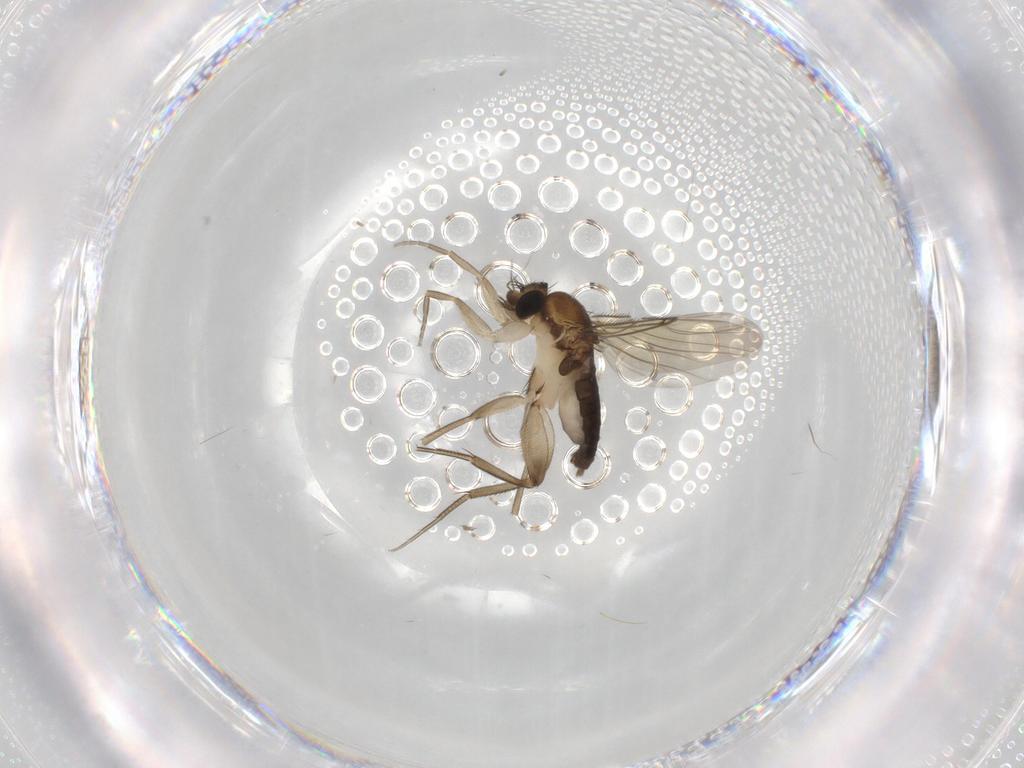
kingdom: Animalia
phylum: Arthropoda
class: Insecta
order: Diptera
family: Phoridae
